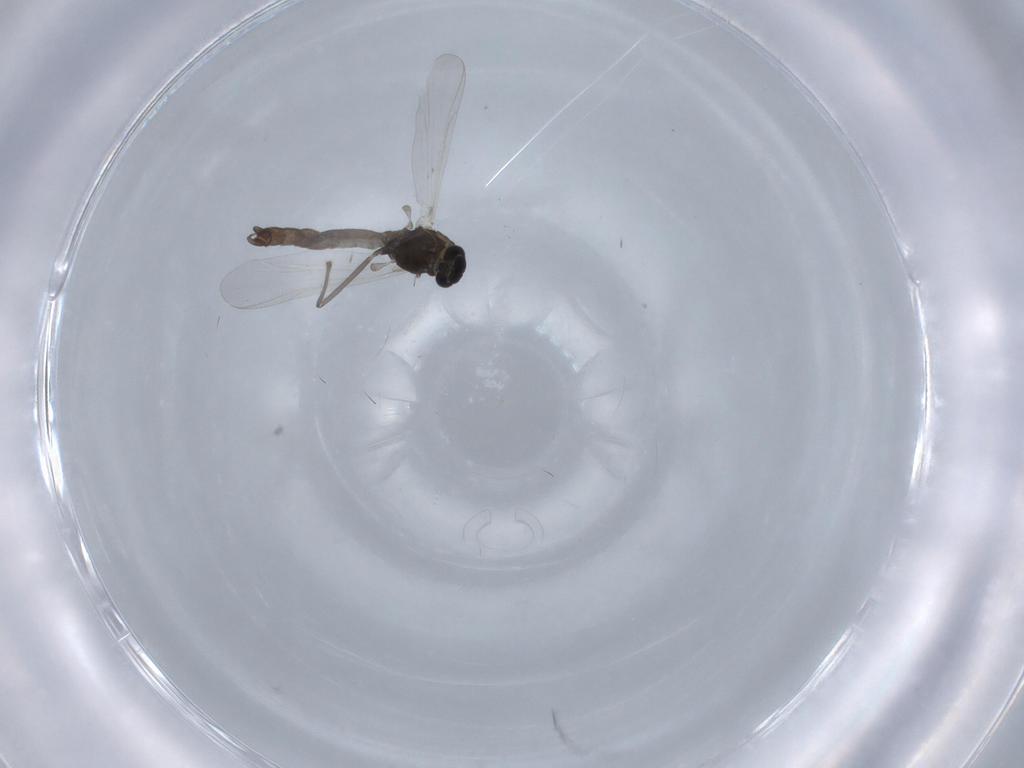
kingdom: Animalia
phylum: Arthropoda
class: Insecta
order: Diptera
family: Chironomidae
